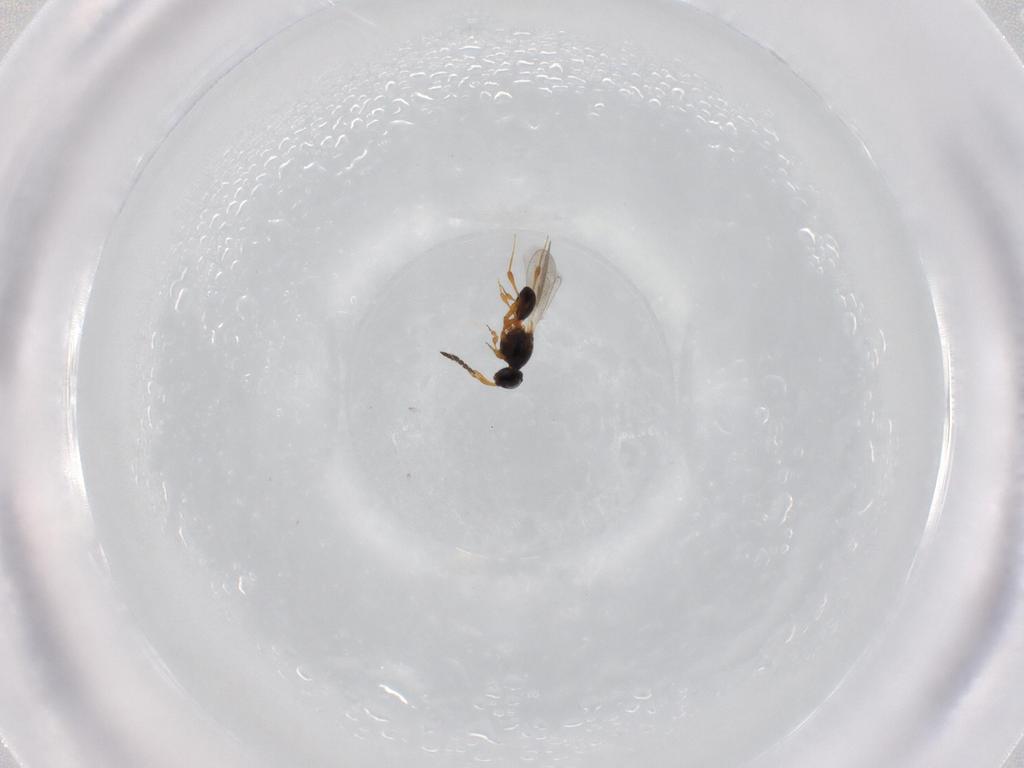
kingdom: Animalia
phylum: Arthropoda
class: Insecta
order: Hymenoptera
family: Platygastridae
